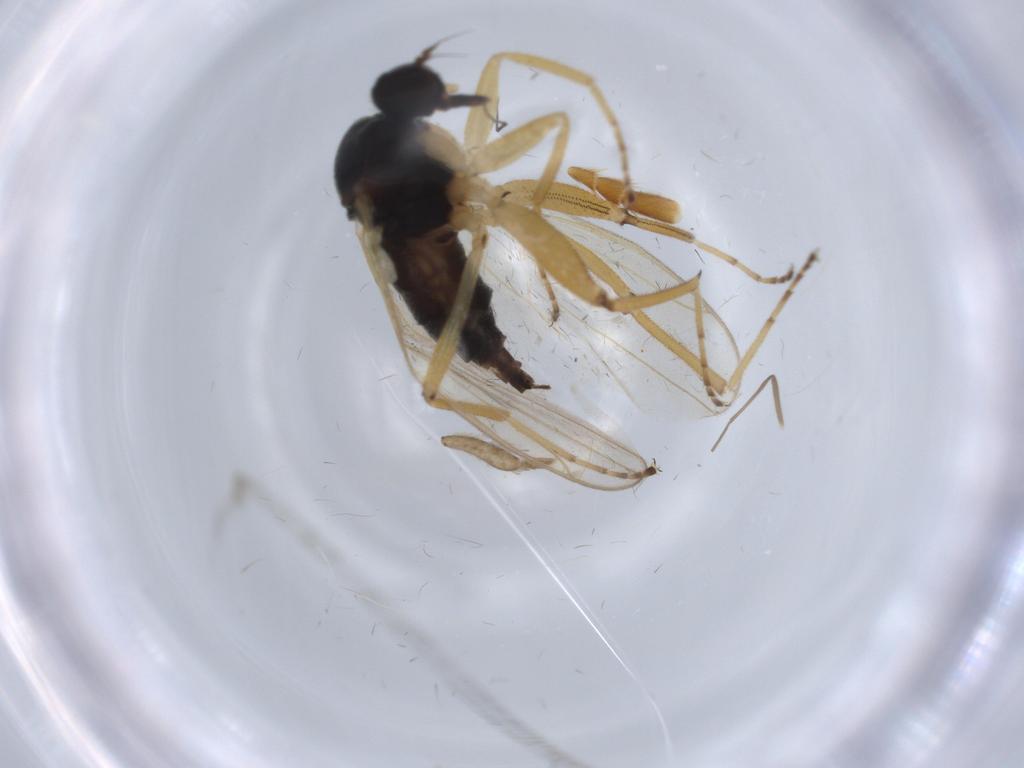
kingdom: Animalia
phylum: Arthropoda
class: Insecta
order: Diptera
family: Hybotidae
